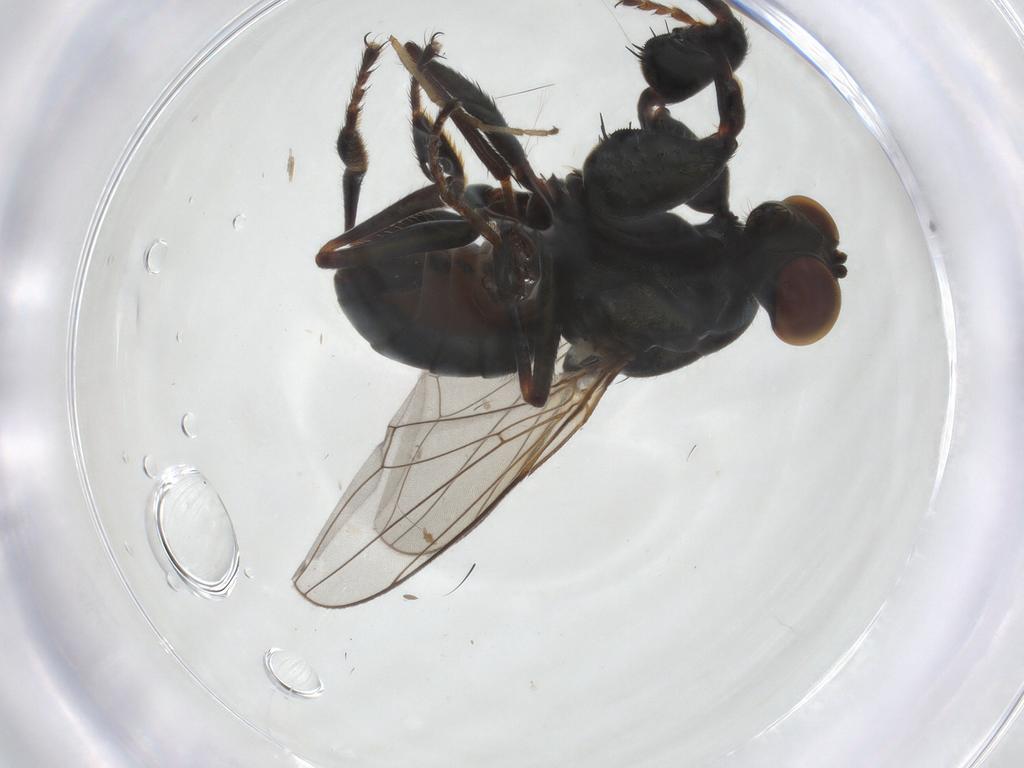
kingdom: Animalia
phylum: Arthropoda
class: Insecta
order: Diptera
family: Ephydridae
